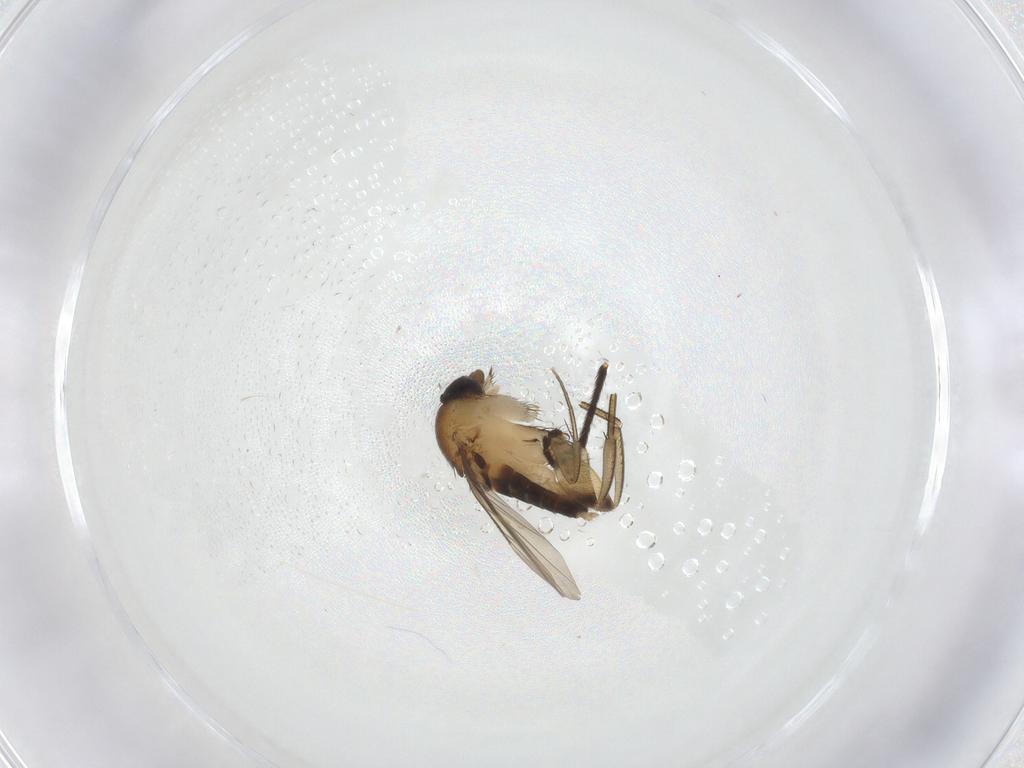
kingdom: Animalia
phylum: Arthropoda
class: Insecta
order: Diptera
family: Phoridae
